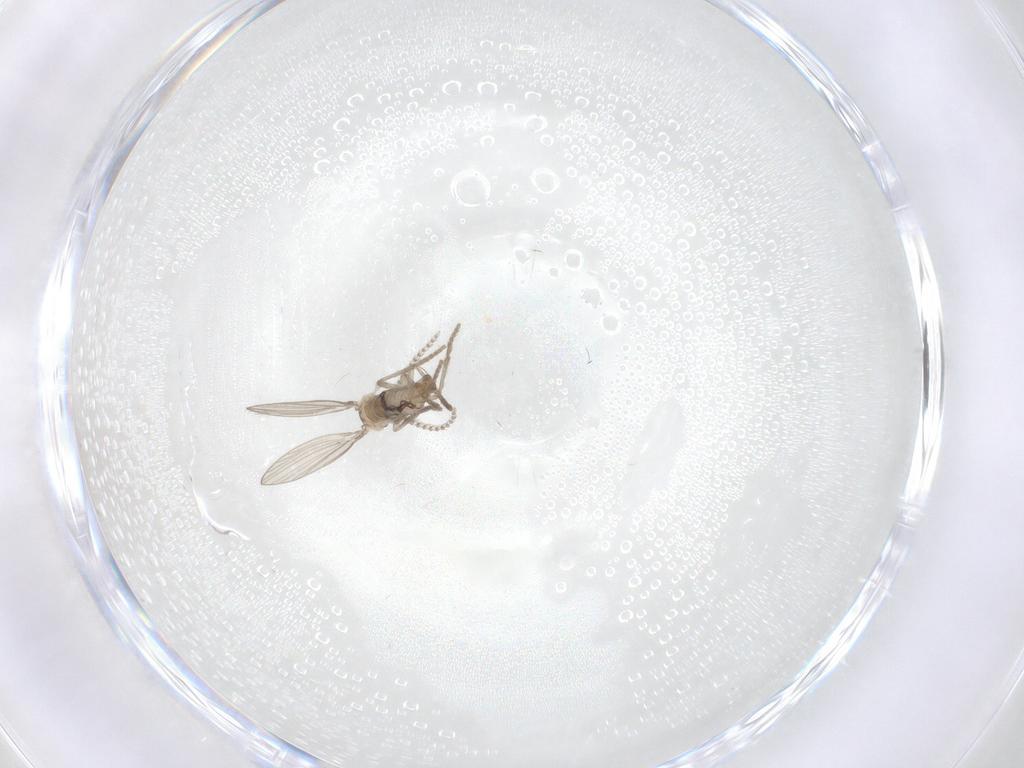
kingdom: Animalia
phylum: Arthropoda
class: Insecta
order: Diptera
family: Psychodidae
